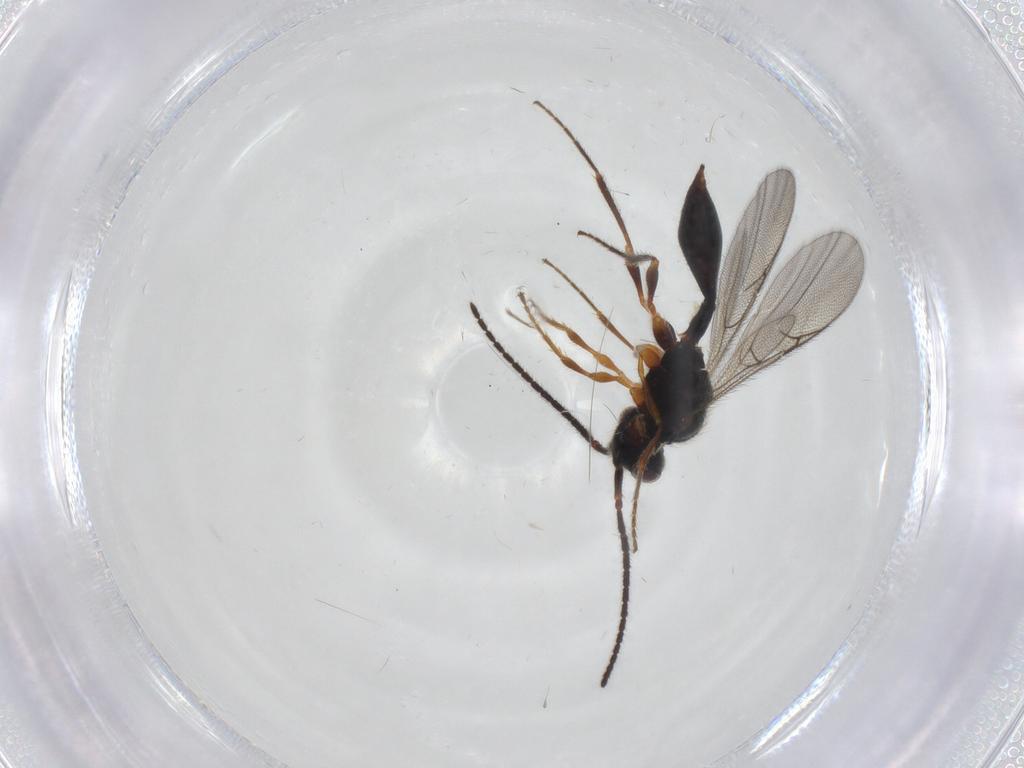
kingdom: Animalia
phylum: Arthropoda
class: Insecta
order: Hymenoptera
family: Diapriidae
